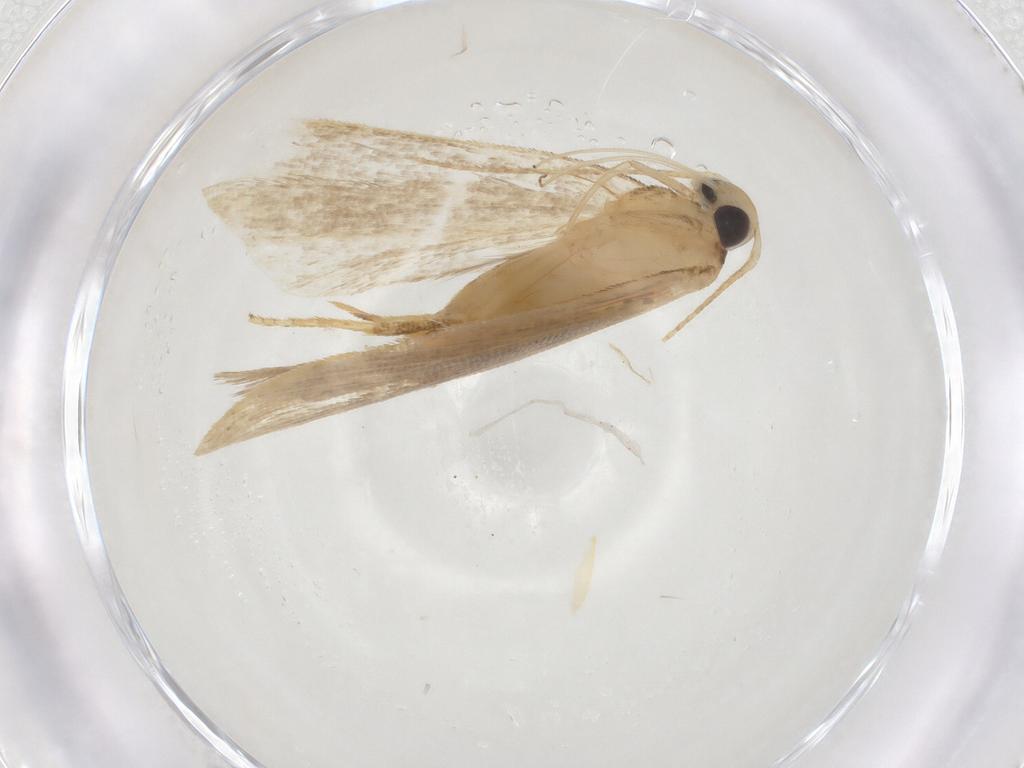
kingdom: Animalia
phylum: Arthropoda
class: Insecta
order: Lepidoptera
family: Gelechiidae
